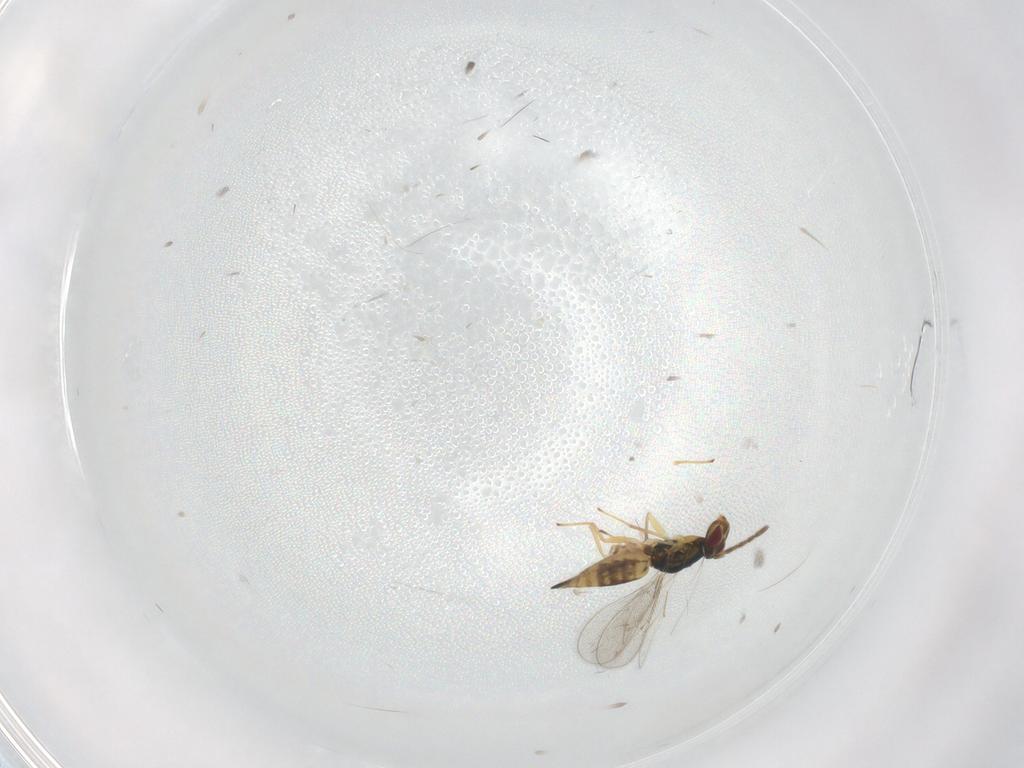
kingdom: Animalia
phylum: Arthropoda
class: Insecta
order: Hymenoptera
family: Eulophidae
